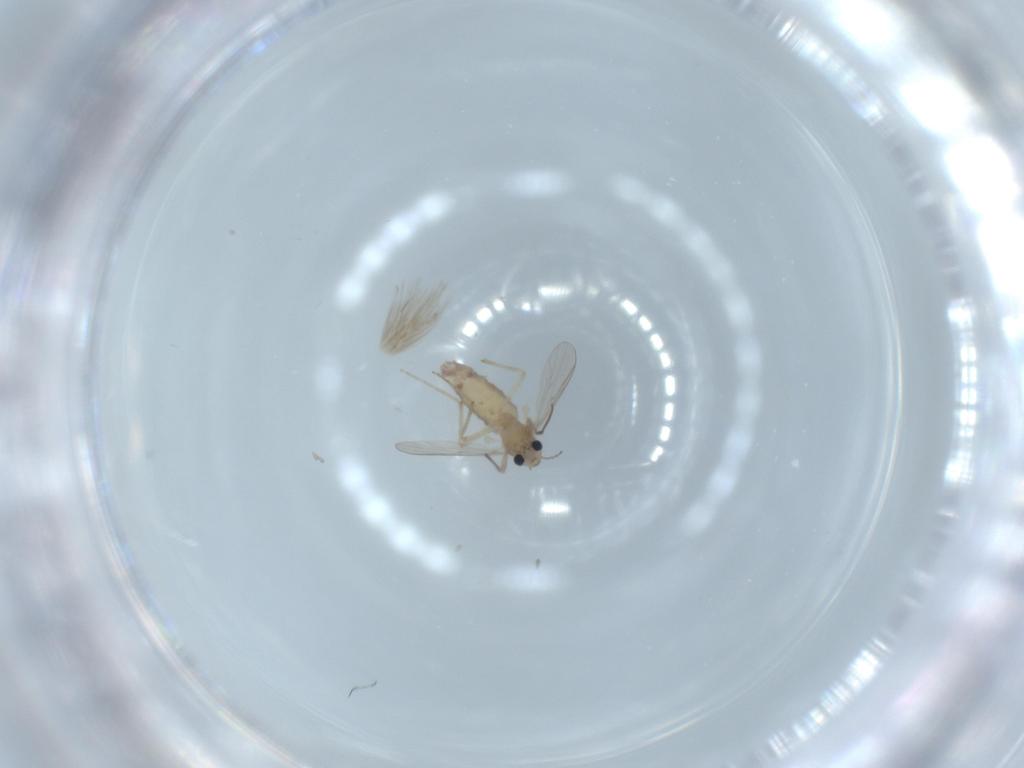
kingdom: Animalia
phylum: Arthropoda
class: Insecta
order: Diptera
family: Chironomidae
